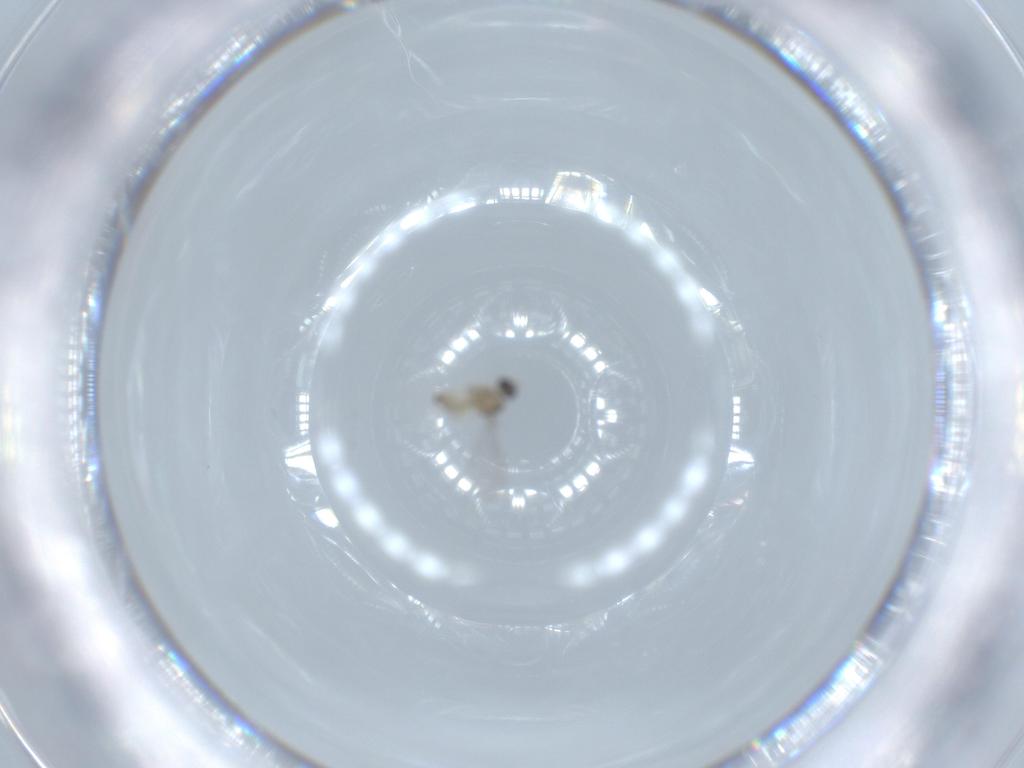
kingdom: Animalia
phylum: Arthropoda
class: Insecta
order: Diptera
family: Cecidomyiidae
